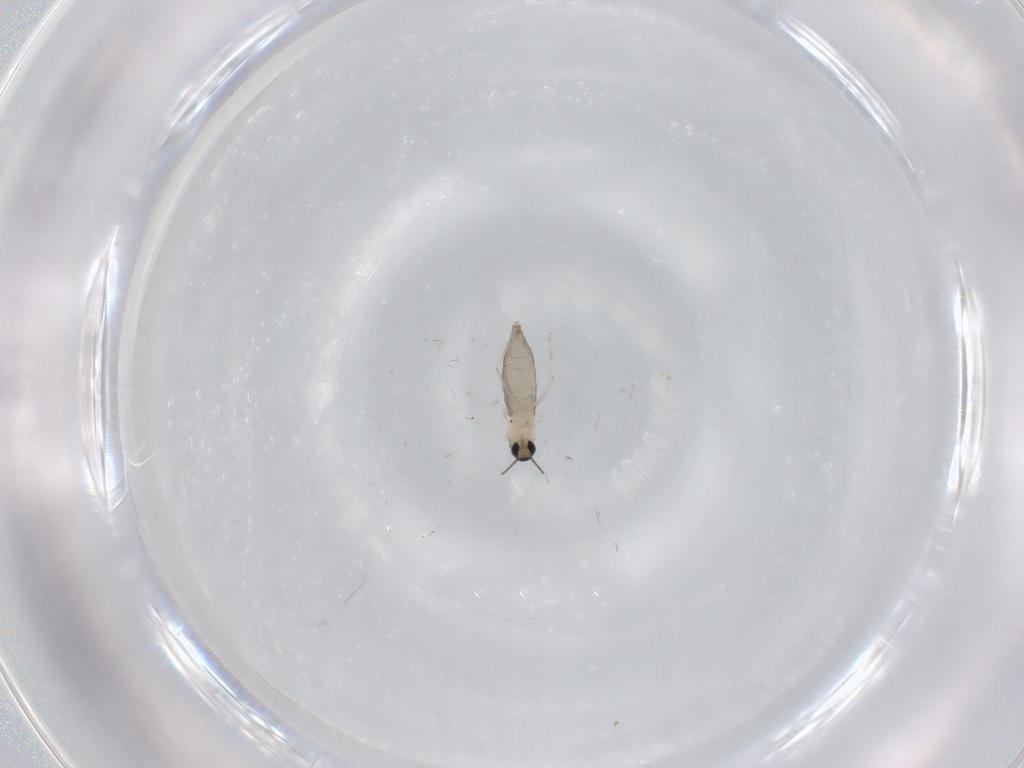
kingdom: Animalia
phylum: Arthropoda
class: Insecta
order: Diptera
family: Cecidomyiidae
